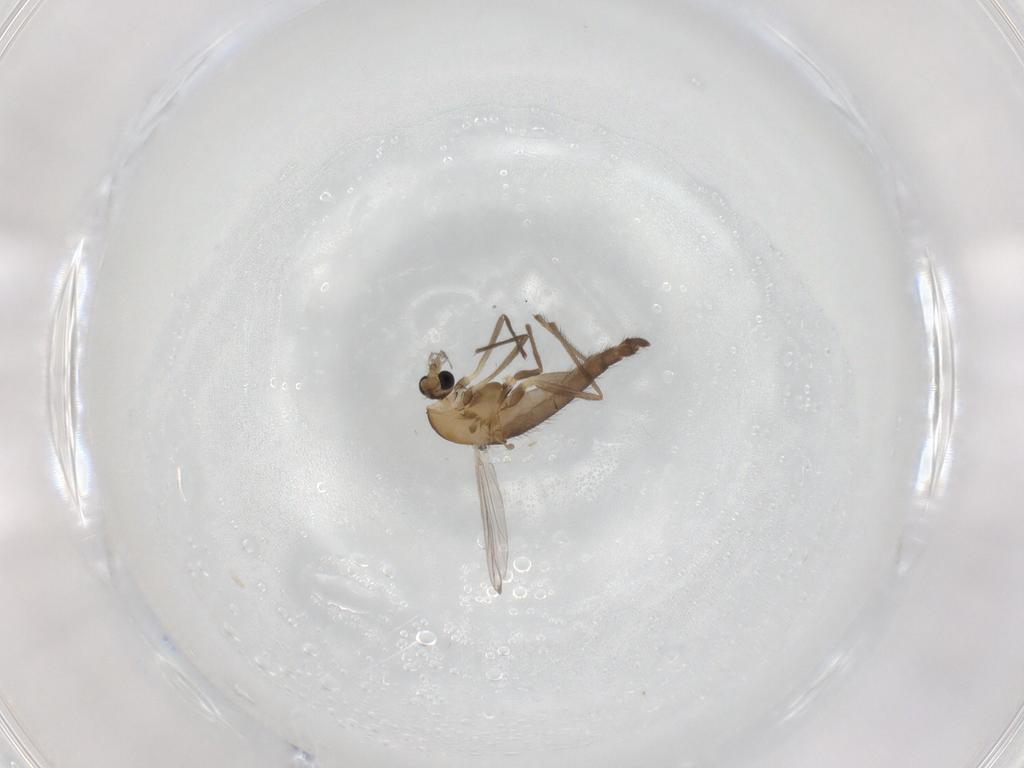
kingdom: Animalia
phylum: Arthropoda
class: Insecta
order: Diptera
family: Chironomidae
